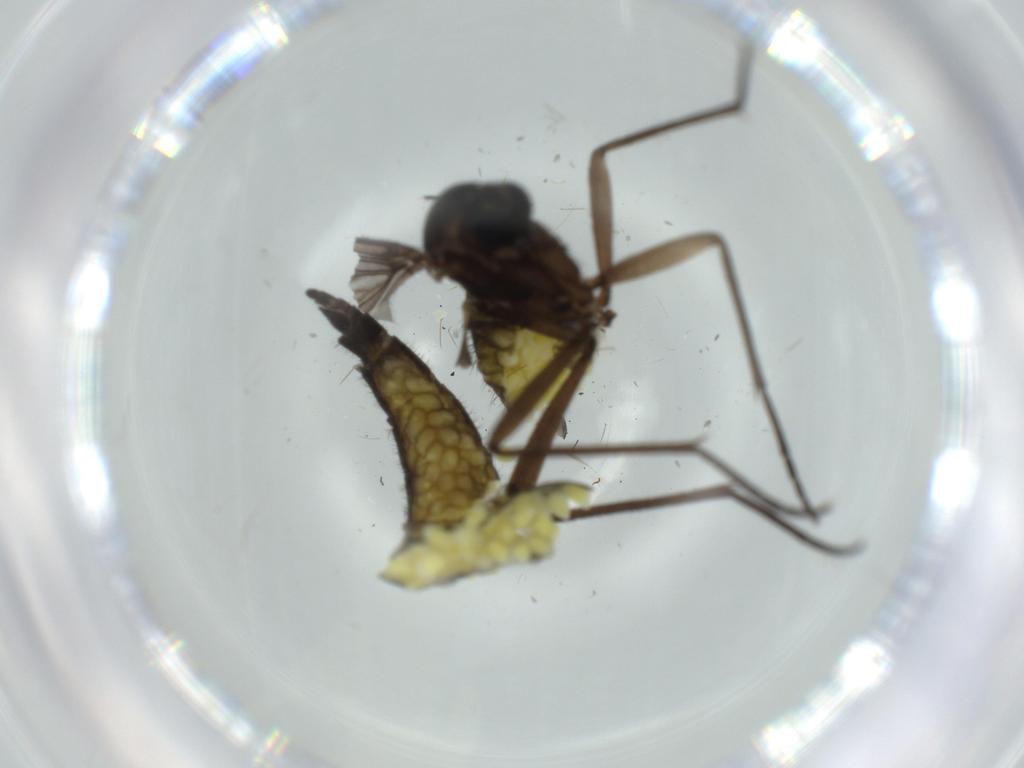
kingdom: Animalia
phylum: Arthropoda
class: Insecta
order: Diptera
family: Sciaridae
